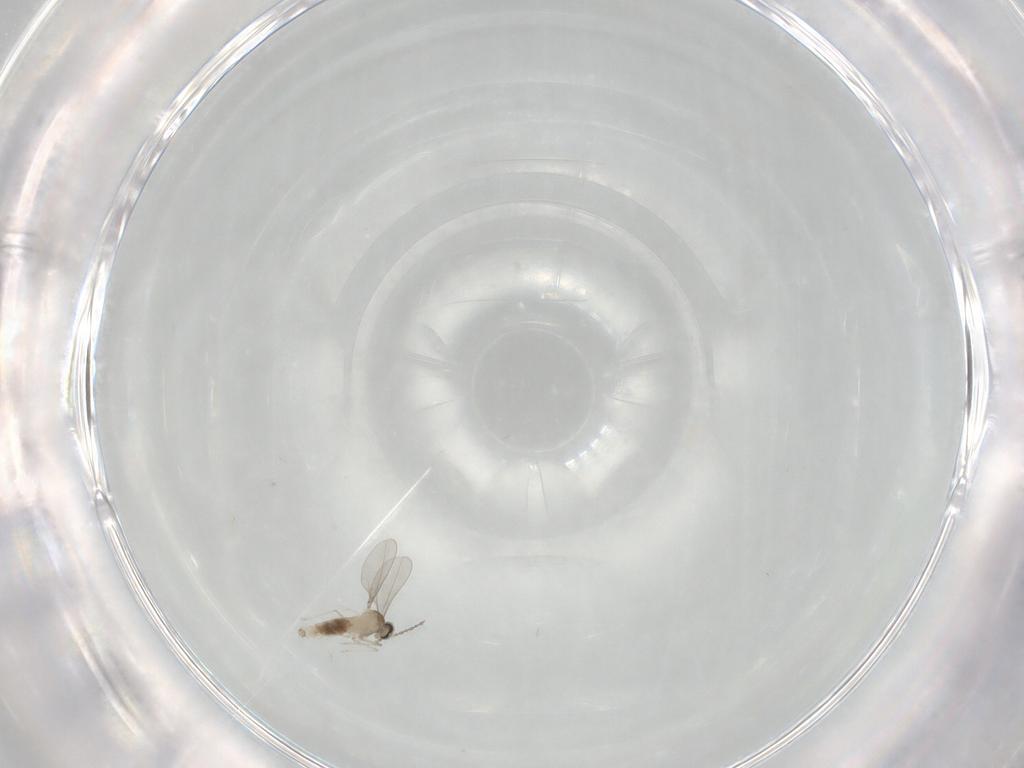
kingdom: Animalia
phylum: Arthropoda
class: Insecta
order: Diptera
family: Cecidomyiidae
